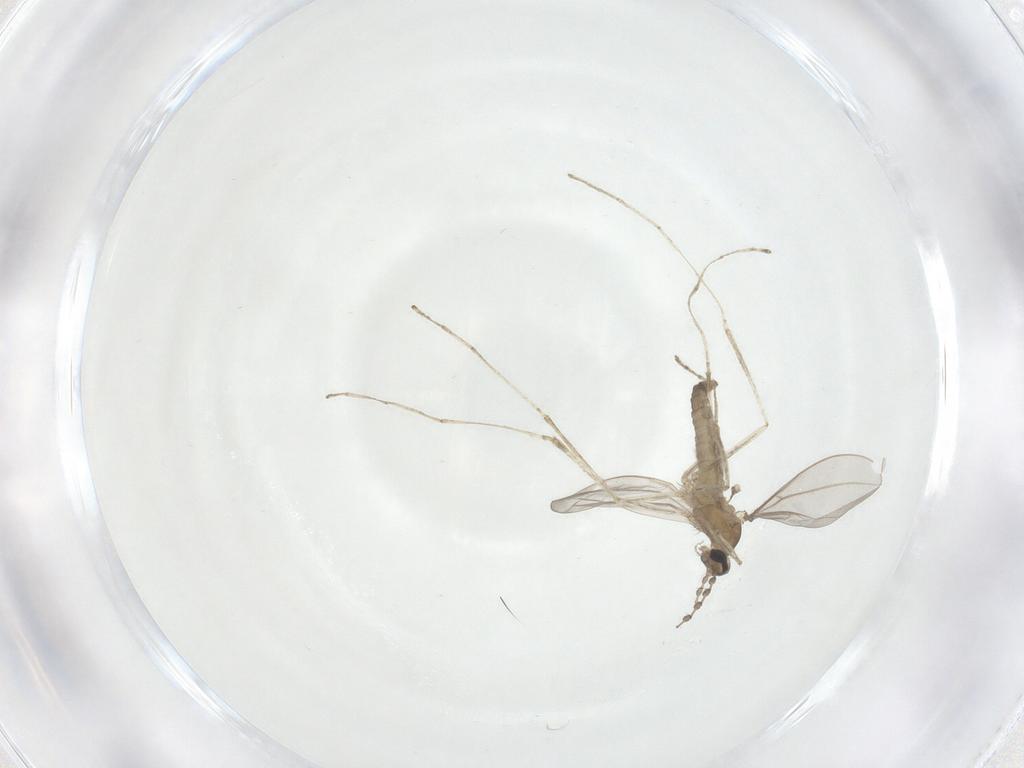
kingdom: Animalia
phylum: Arthropoda
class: Insecta
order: Diptera
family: Cecidomyiidae
